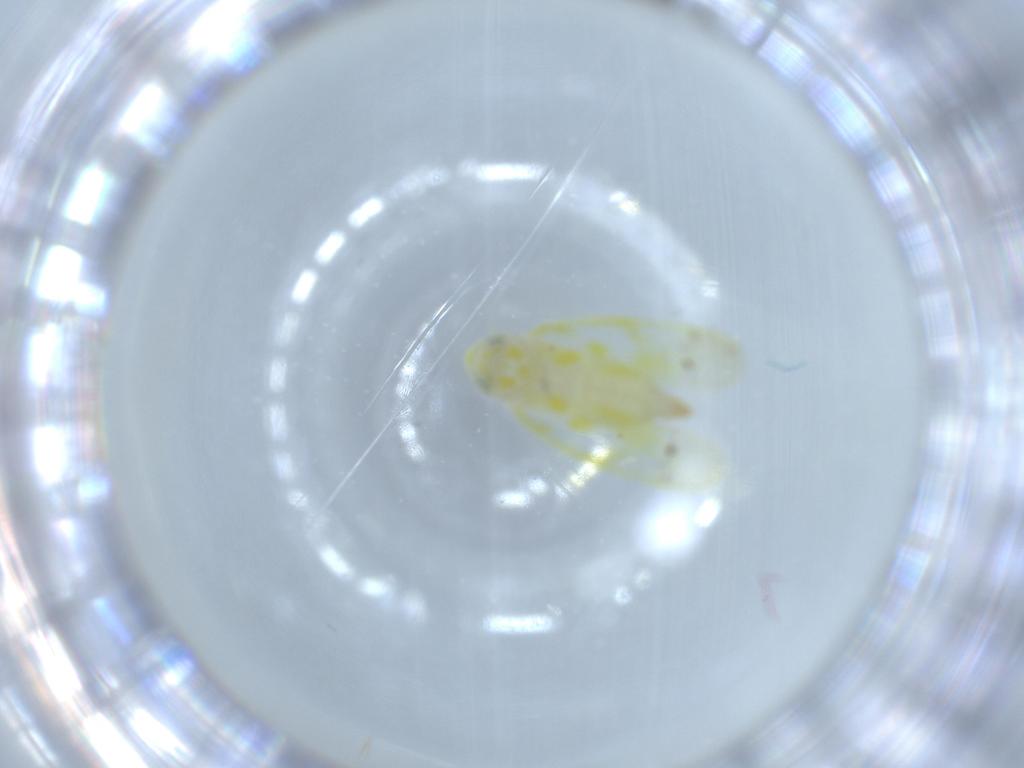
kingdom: Animalia
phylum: Arthropoda
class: Insecta
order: Hemiptera
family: Cicadellidae
